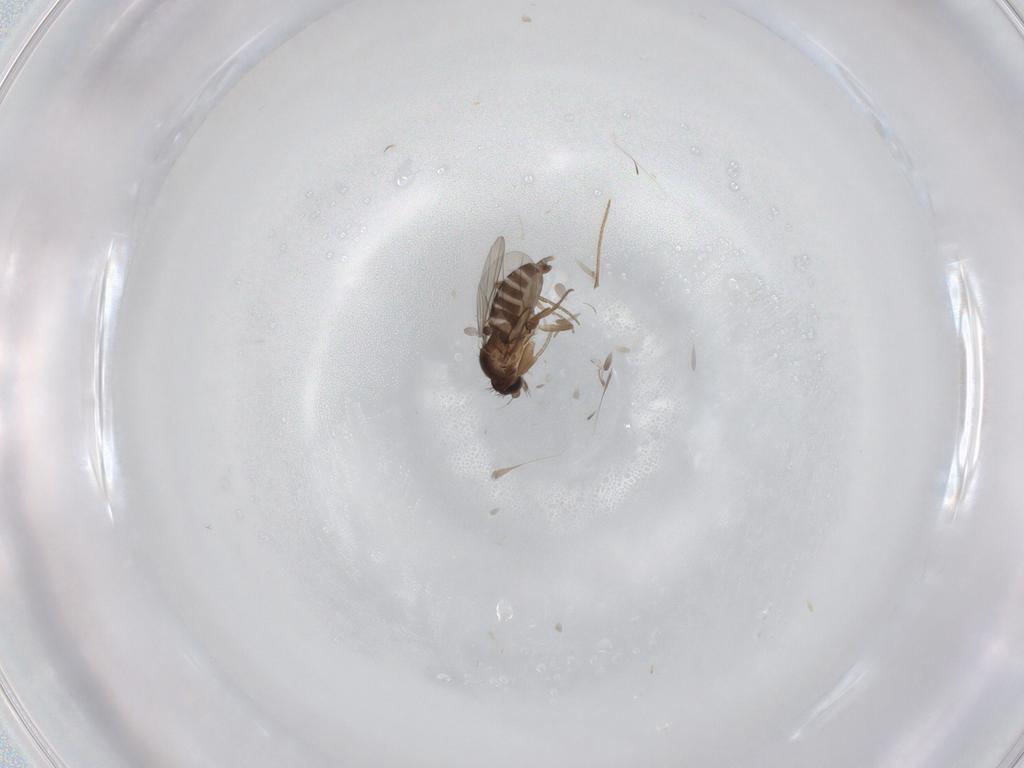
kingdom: Animalia
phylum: Arthropoda
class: Insecta
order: Diptera
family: Phoridae
